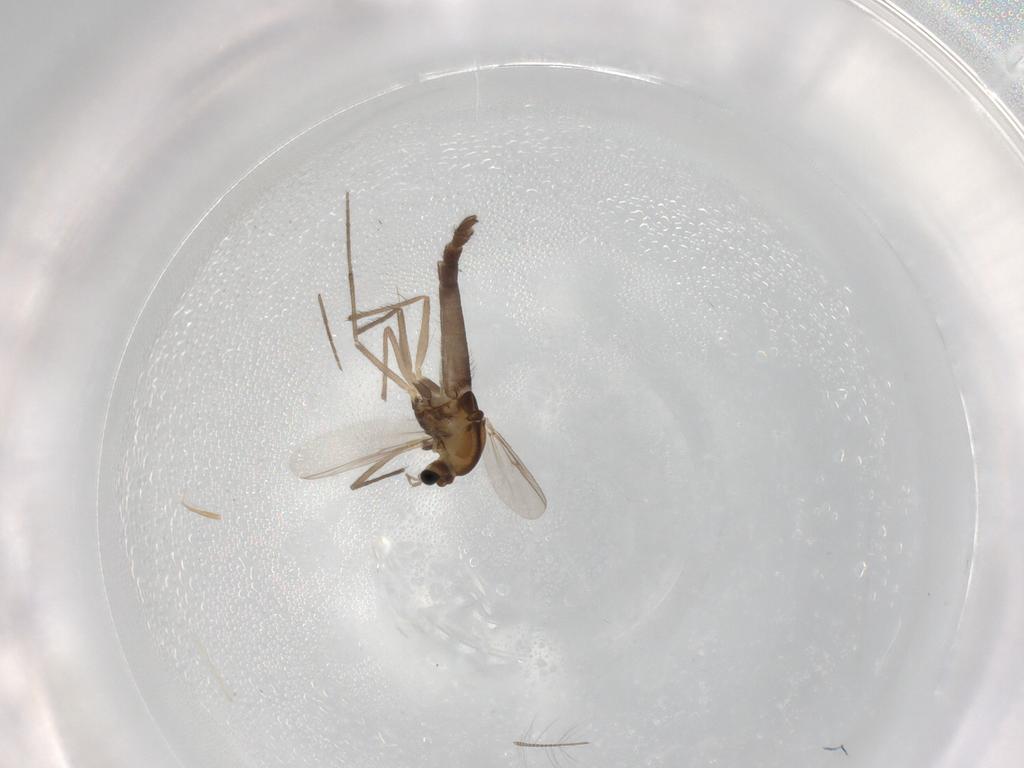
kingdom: Animalia
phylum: Arthropoda
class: Insecta
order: Diptera
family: Chironomidae
